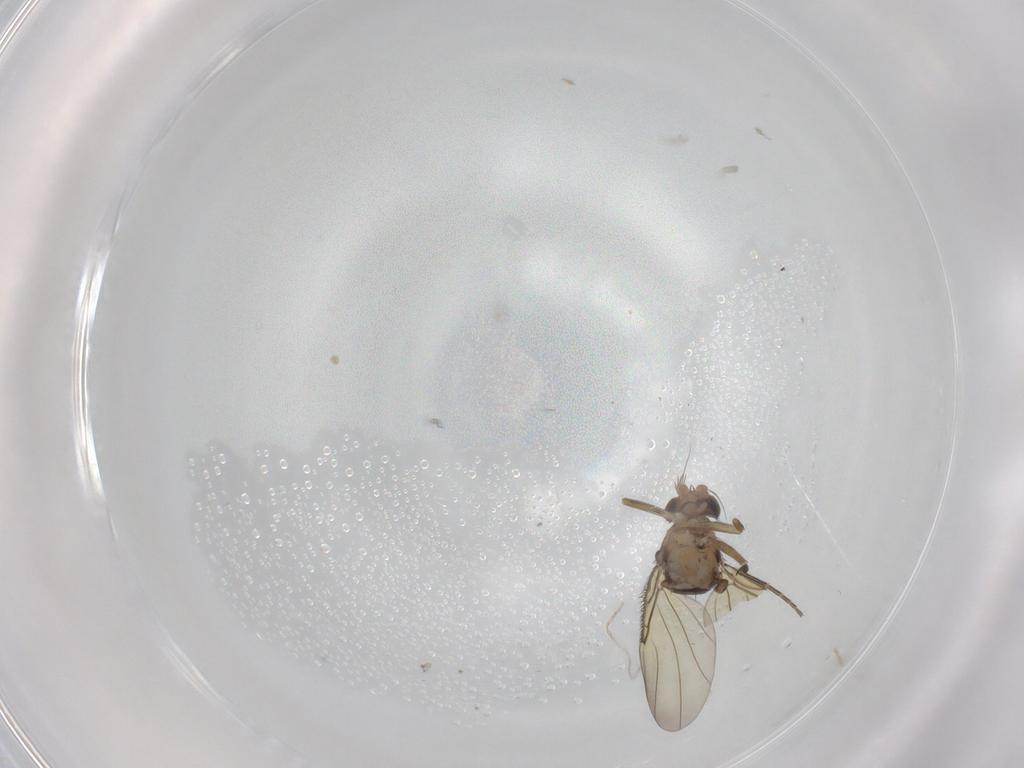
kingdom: Animalia
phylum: Arthropoda
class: Insecta
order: Diptera
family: Phoridae
